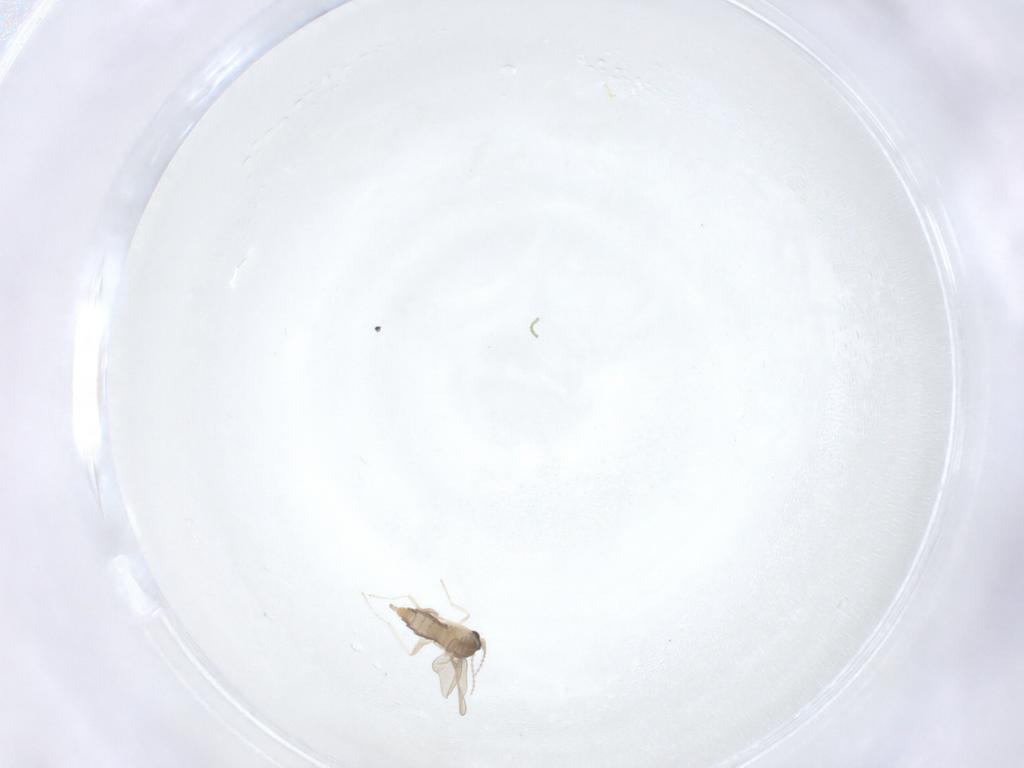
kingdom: Animalia
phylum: Arthropoda
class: Insecta
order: Diptera
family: Cecidomyiidae
